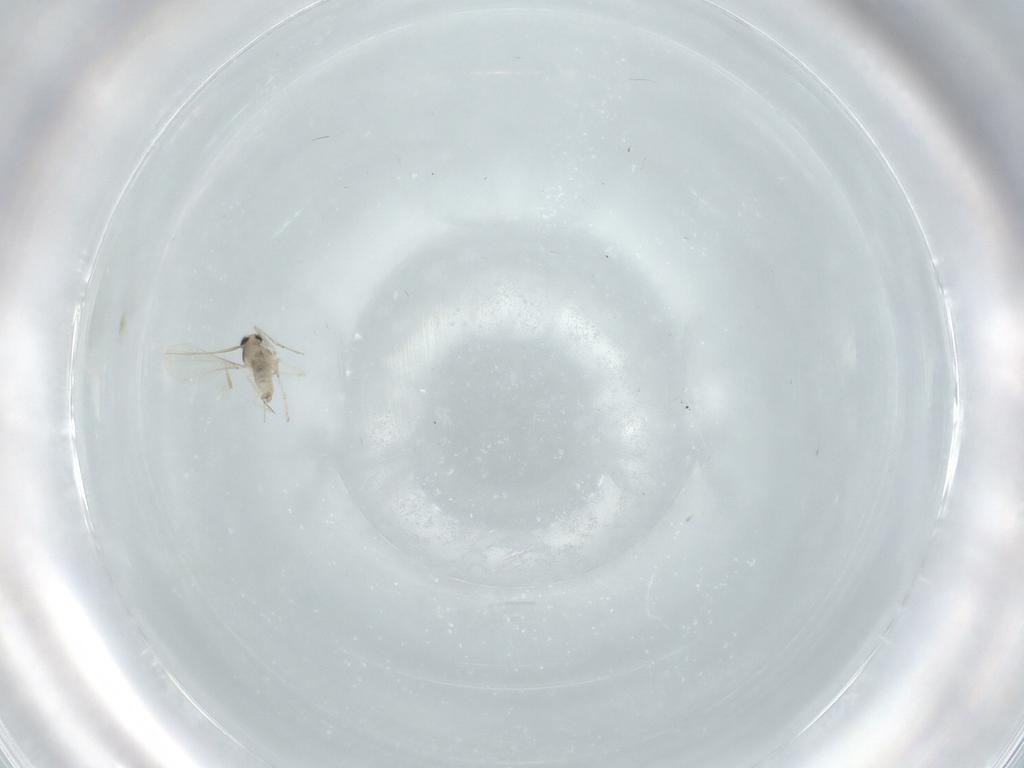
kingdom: Animalia
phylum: Arthropoda
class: Insecta
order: Diptera
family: Cecidomyiidae
